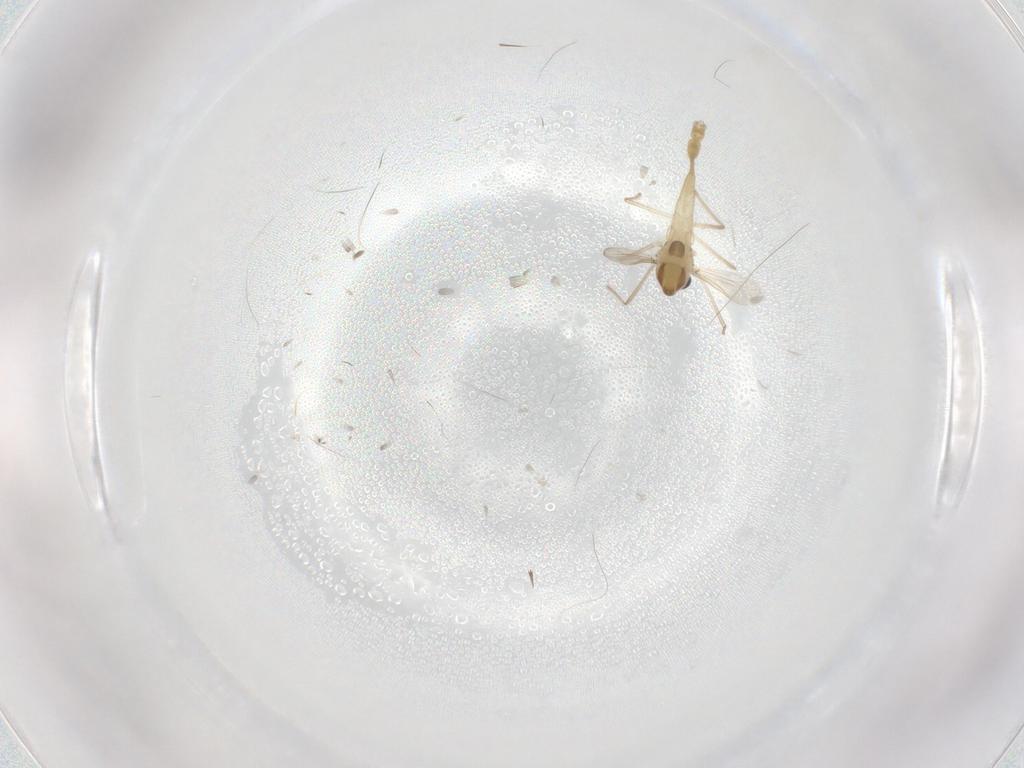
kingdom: Animalia
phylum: Arthropoda
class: Insecta
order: Diptera
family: Chironomidae
